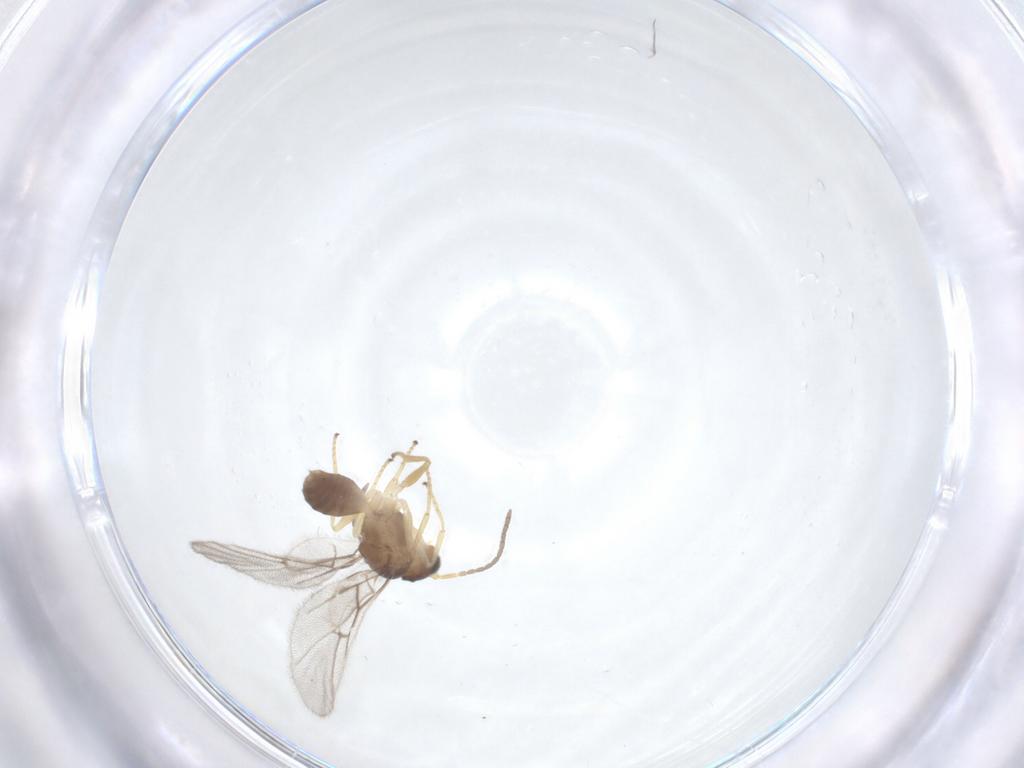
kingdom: Animalia
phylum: Arthropoda
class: Insecta
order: Hymenoptera
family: Cynipidae
